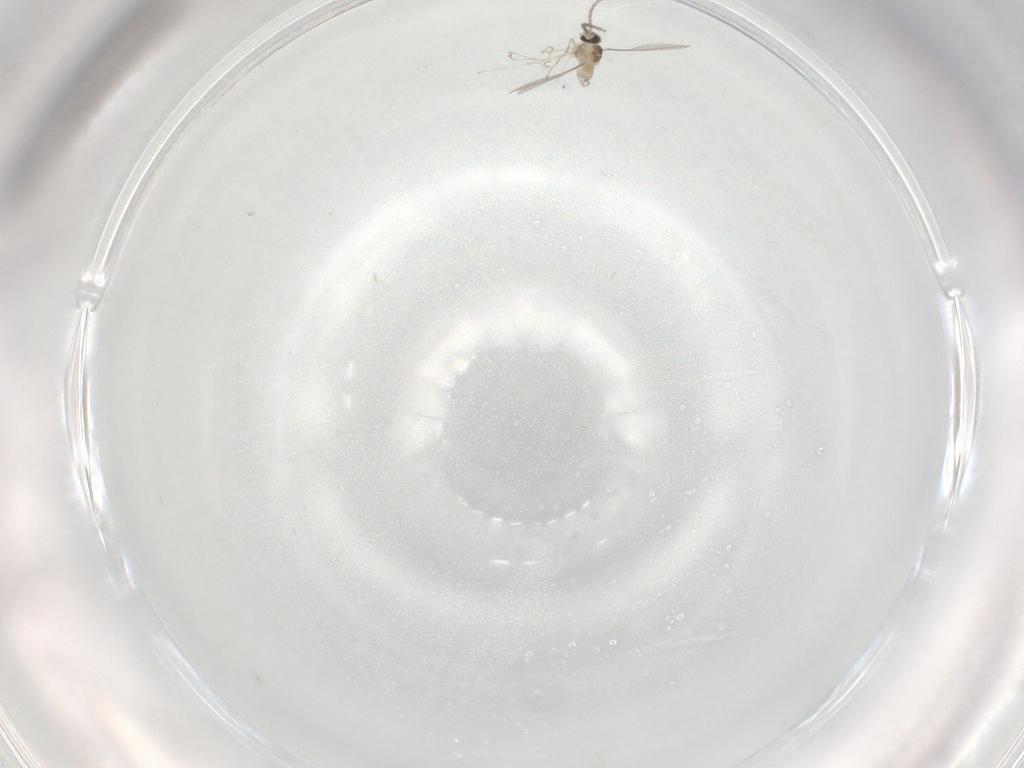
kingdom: Animalia
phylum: Arthropoda
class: Insecta
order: Diptera
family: Cecidomyiidae
